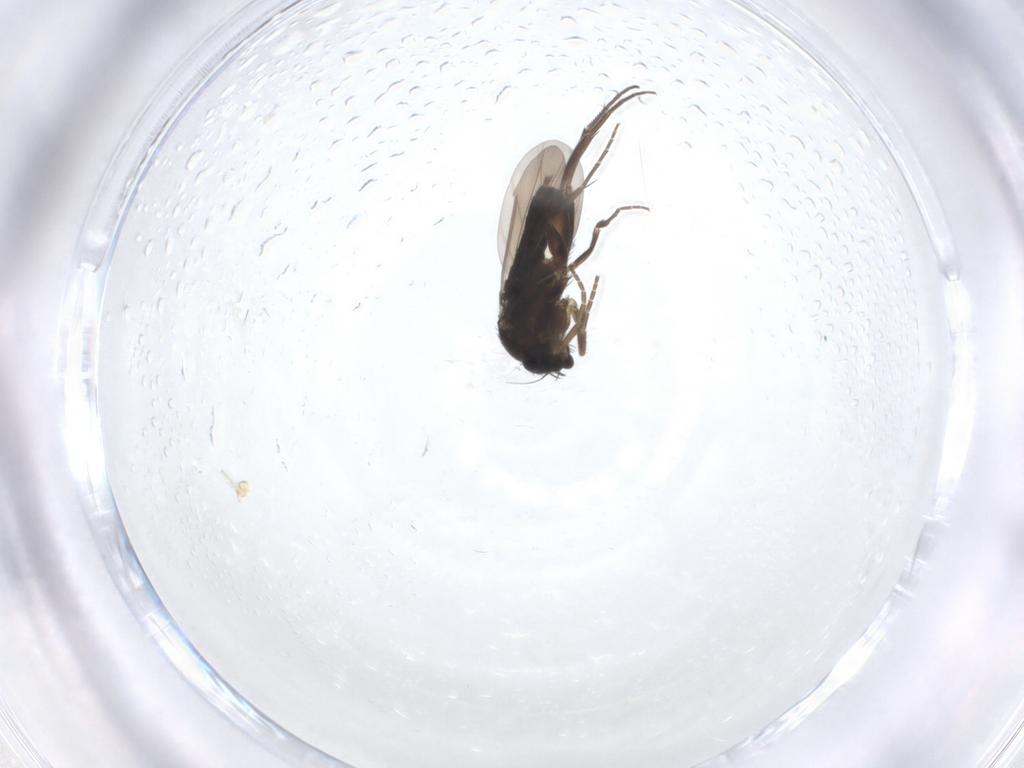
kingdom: Animalia
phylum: Arthropoda
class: Insecta
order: Diptera
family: Phoridae
